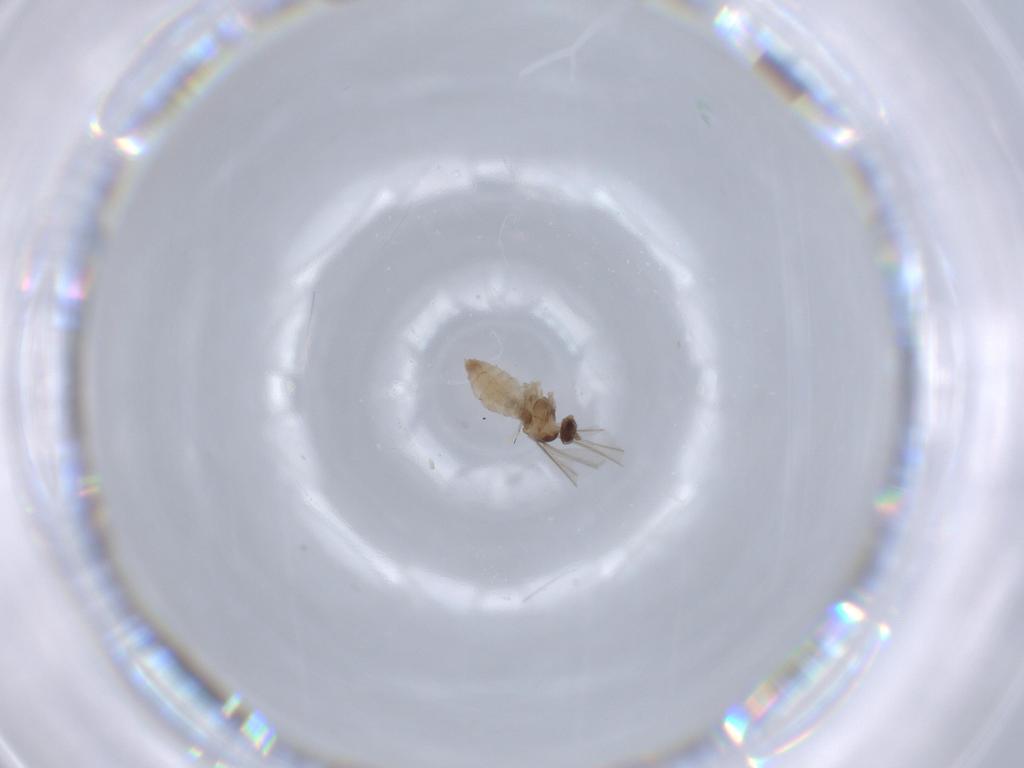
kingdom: Animalia
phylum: Arthropoda
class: Insecta
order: Diptera
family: Cecidomyiidae
